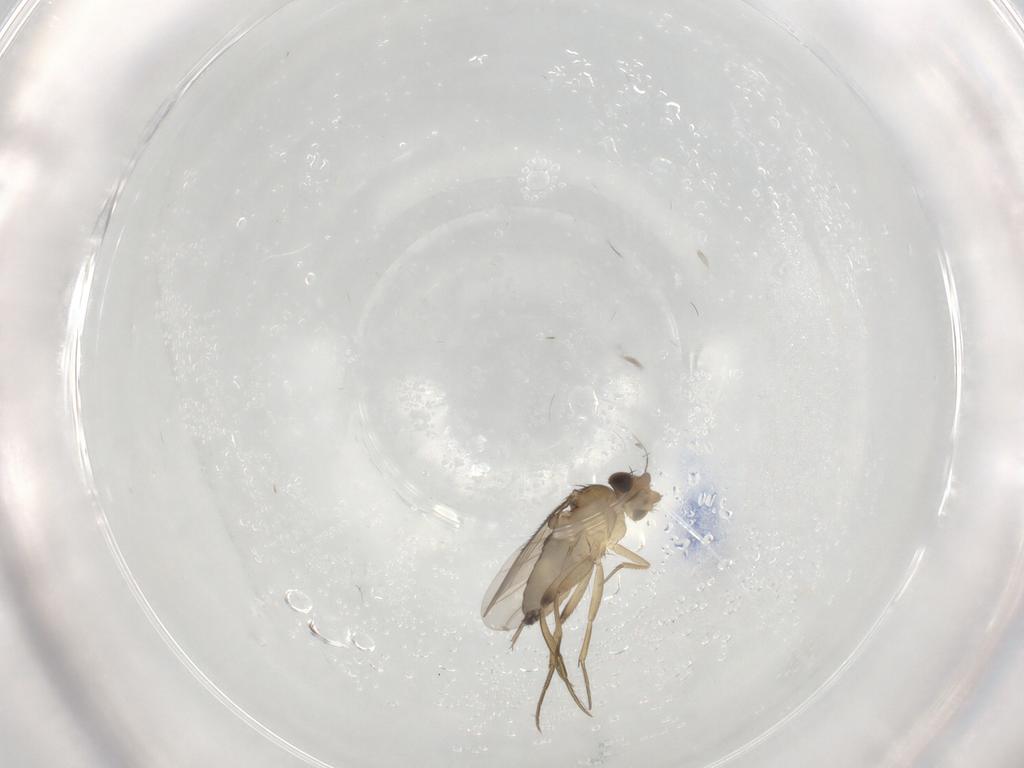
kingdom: Animalia
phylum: Arthropoda
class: Insecta
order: Diptera
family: Phoridae
